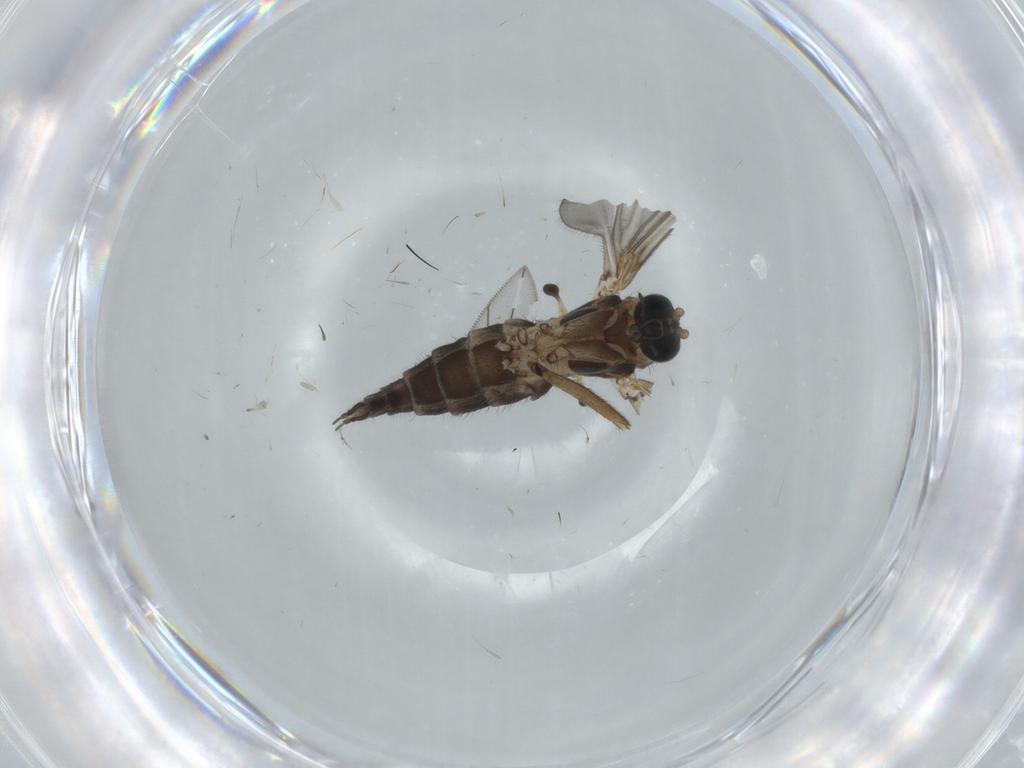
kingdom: Animalia
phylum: Arthropoda
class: Insecta
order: Diptera
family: Sciaridae
